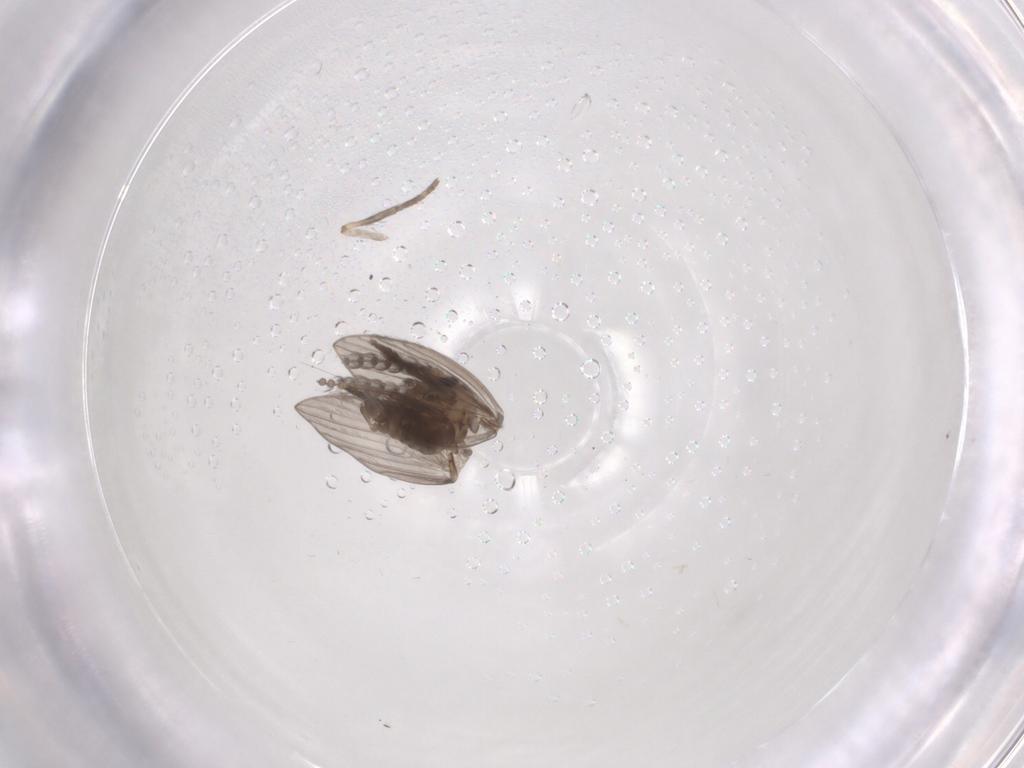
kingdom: Animalia
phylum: Arthropoda
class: Insecta
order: Diptera
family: Psychodidae
